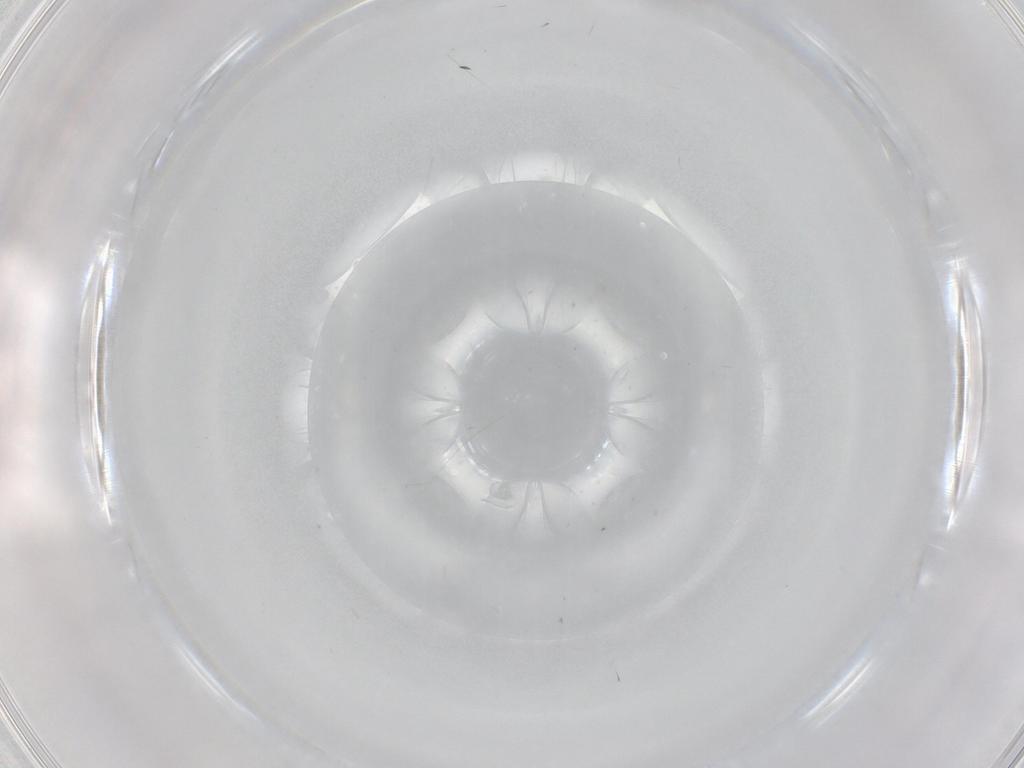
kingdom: Animalia
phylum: Arthropoda
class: Insecta
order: Diptera
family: Cecidomyiidae
